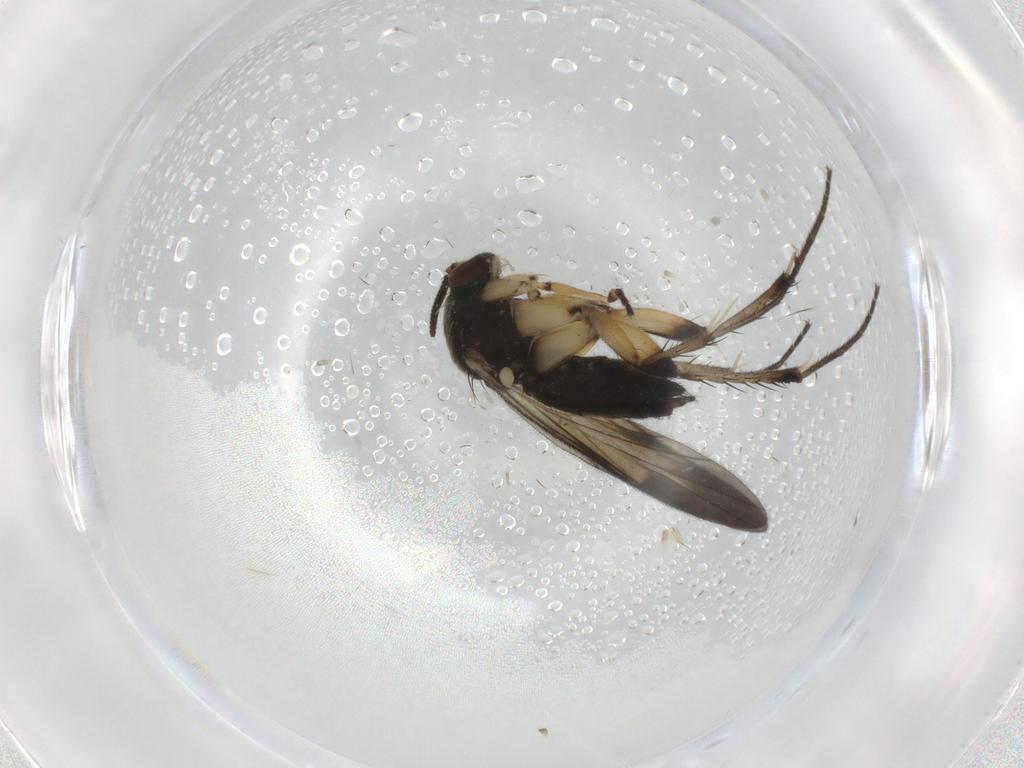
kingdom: Animalia
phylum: Arthropoda
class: Insecta
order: Diptera
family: Mycetophilidae
